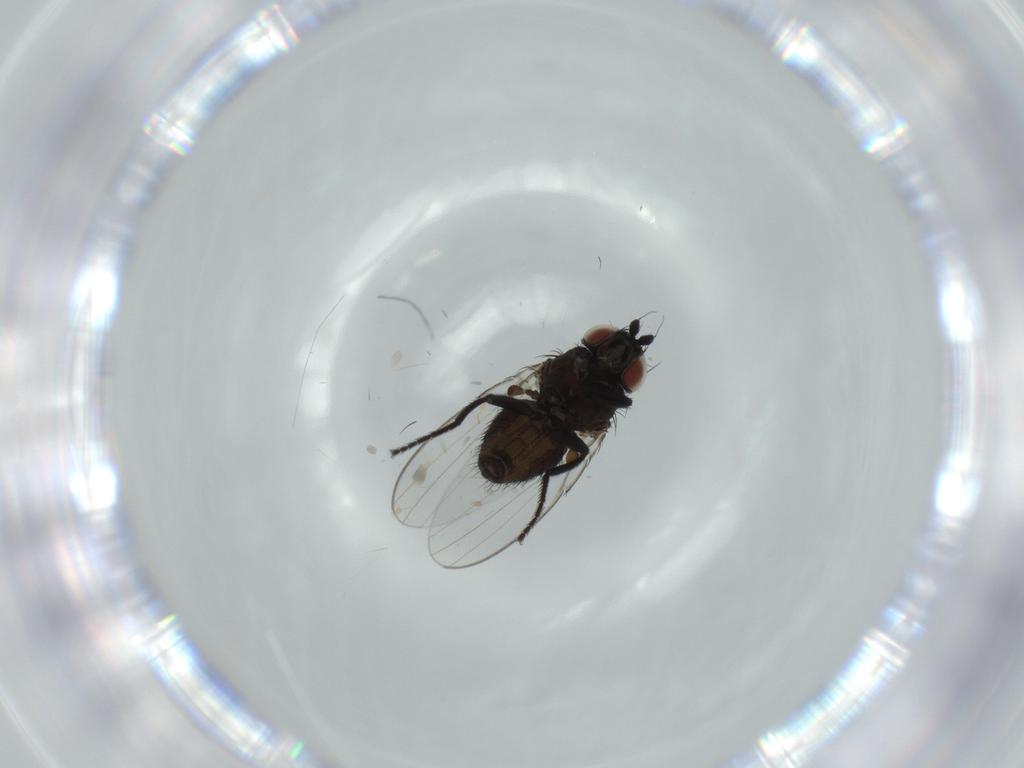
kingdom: Animalia
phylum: Arthropoda
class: Insecta
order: Diptera
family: Milichiidae
